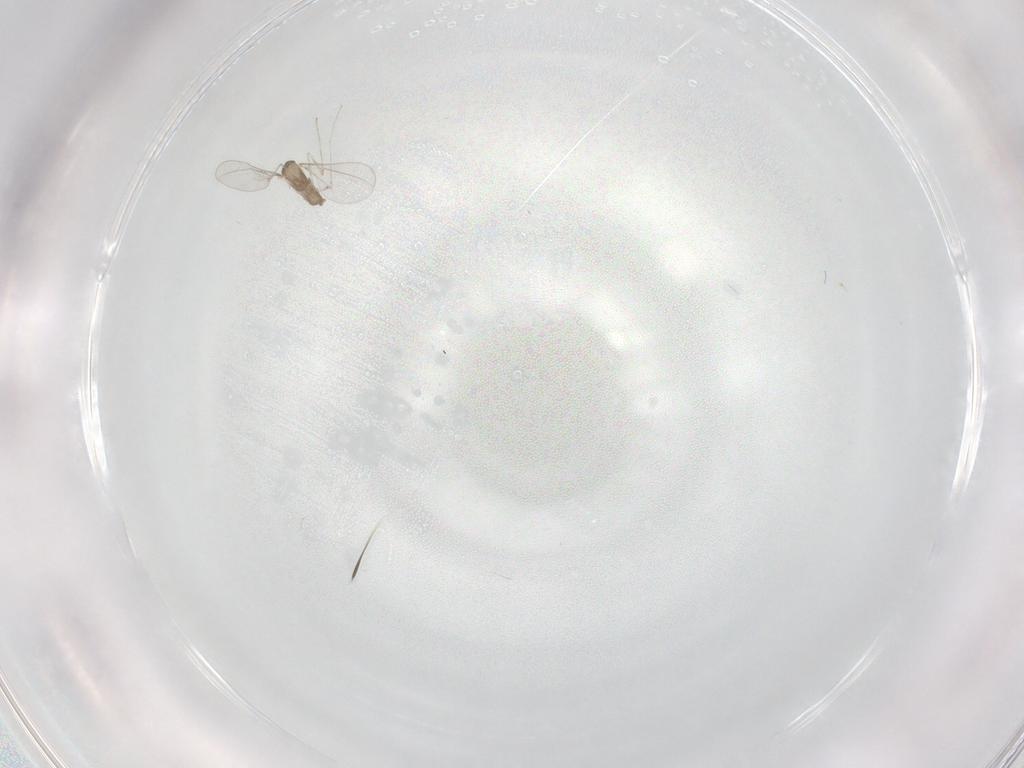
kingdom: Animalia
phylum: Arthropoda
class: Insecta
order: Diptera
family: Cecidomyiidae
